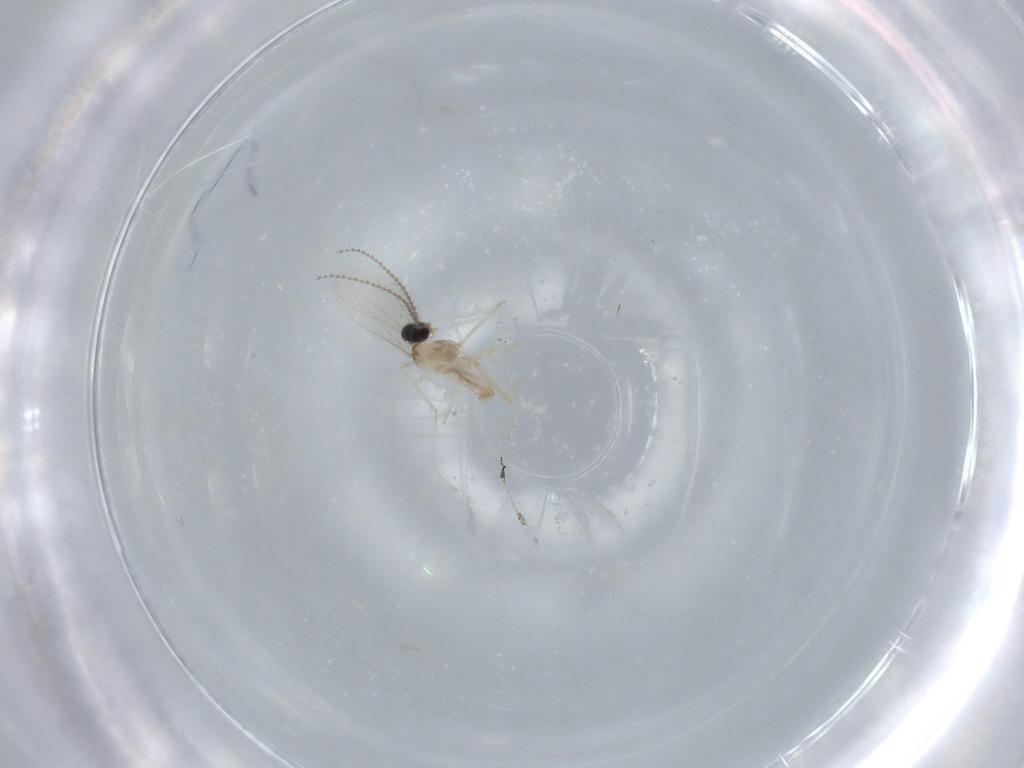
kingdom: Animalia
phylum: Arthropoda
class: Insecta
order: Diptera
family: Cecidomyiidae
